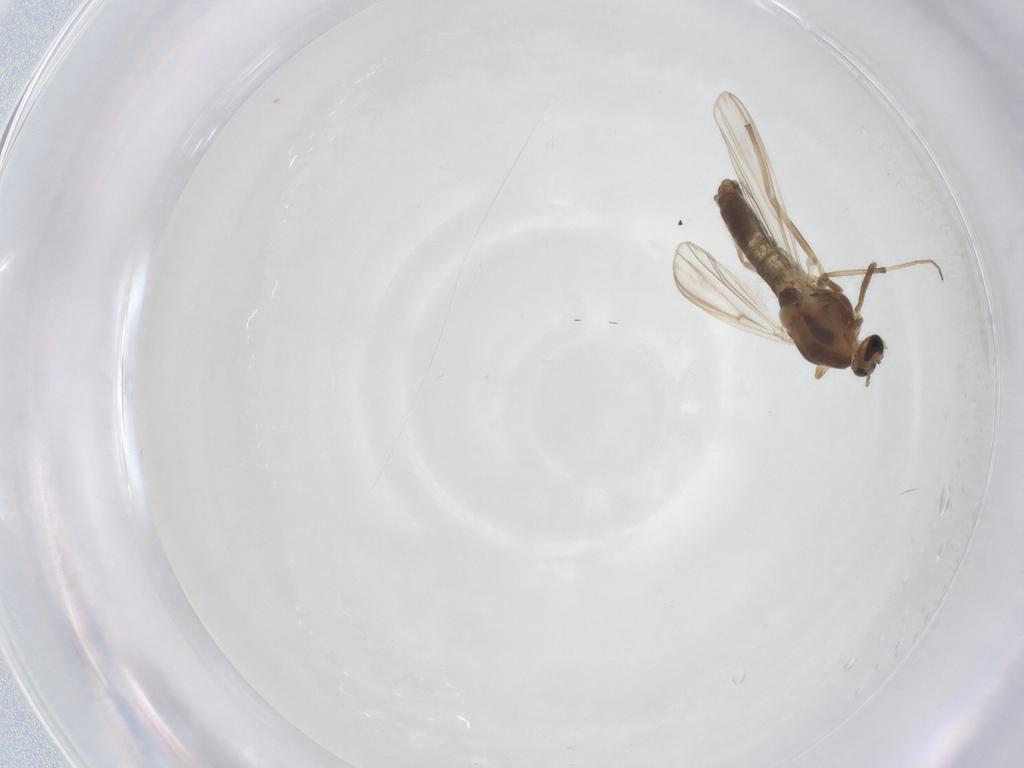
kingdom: Animalia
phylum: Arthropoda
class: Insecta
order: Diptera
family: Chironomidae
